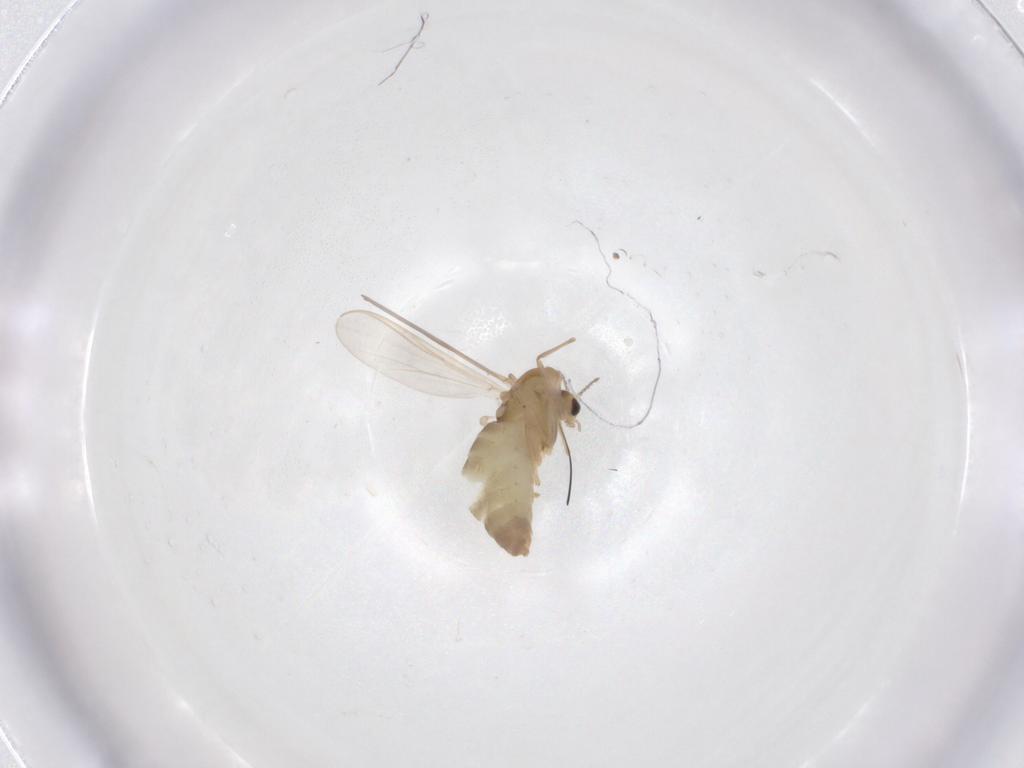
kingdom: Animalia
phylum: Arthropoda
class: Insecta
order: Diptera
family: Chironomidae
